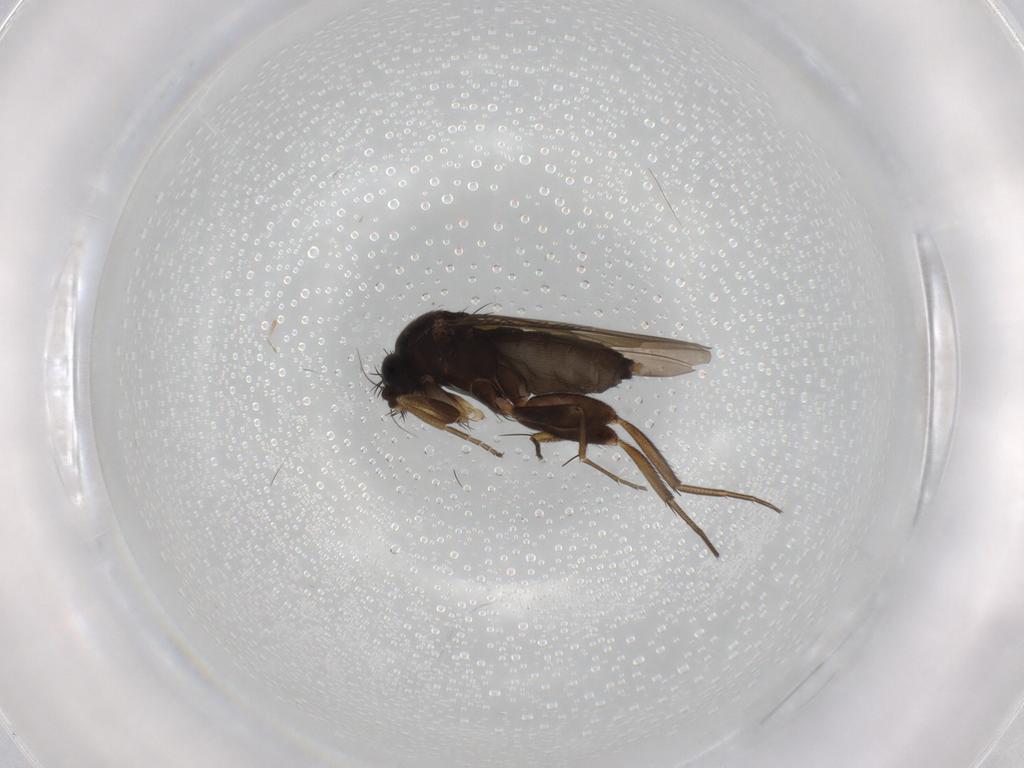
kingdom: Animalia
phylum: Arthropoda
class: Insecta
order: Diptera
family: Phoridae
